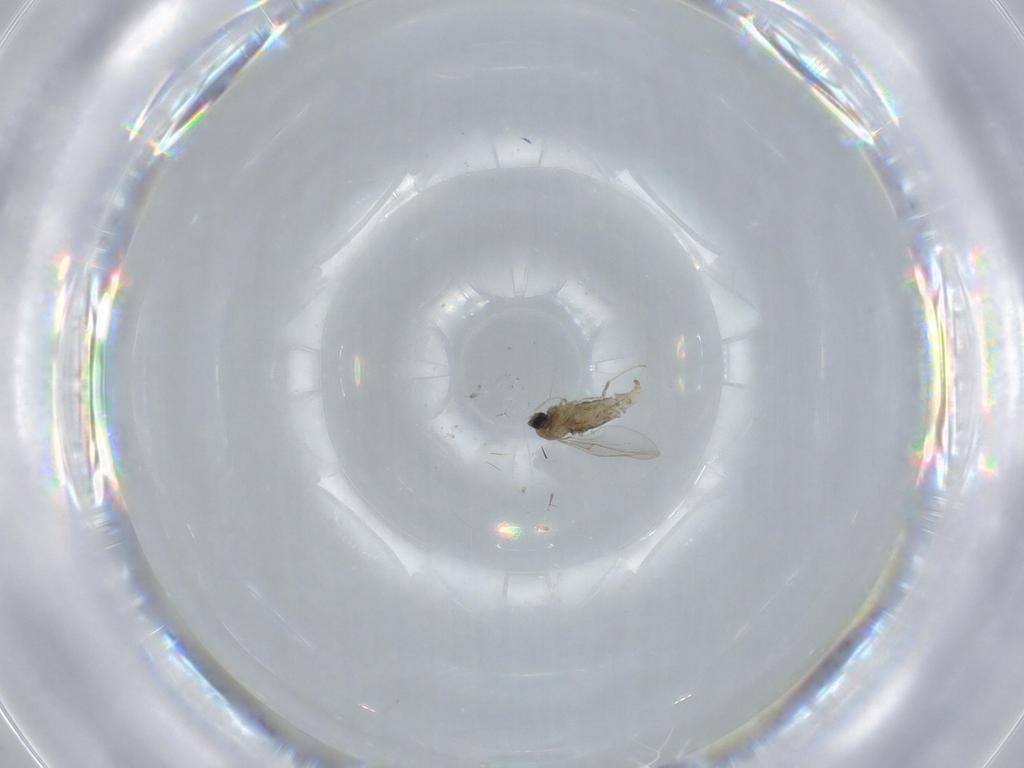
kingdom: Animalia
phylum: Arthropoda
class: Insecta
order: Diptera
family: Cecidomyiidae
